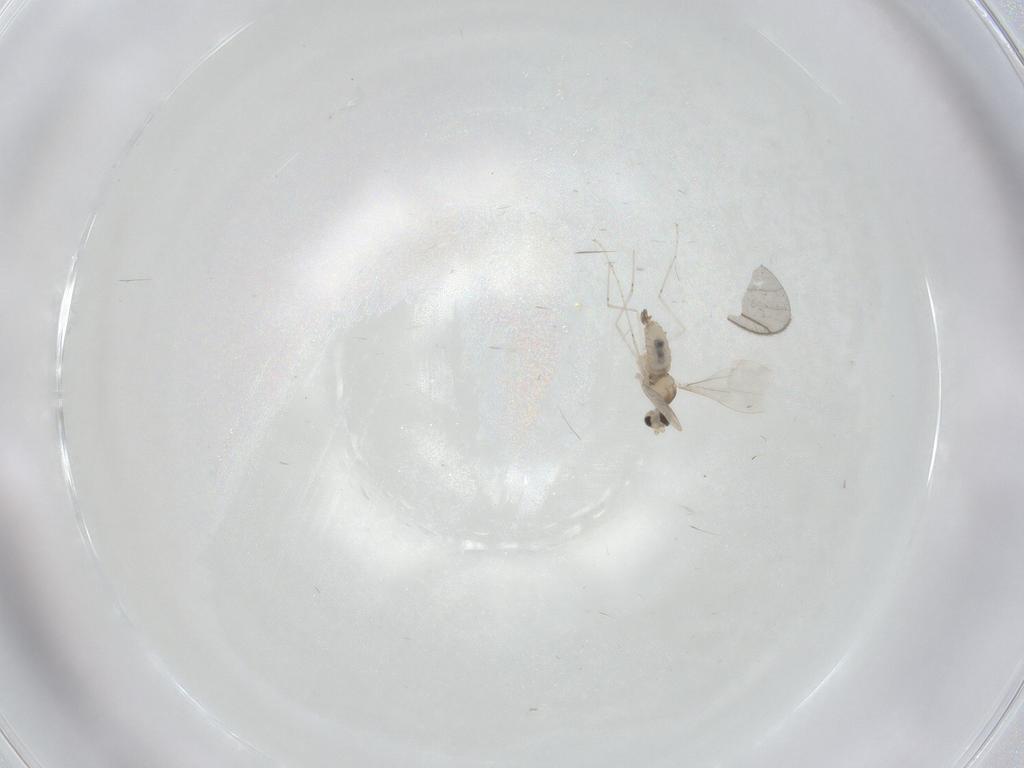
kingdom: Animalia
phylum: Arthropoda
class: Insecta
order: Diptera
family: Cecidomyiidae
